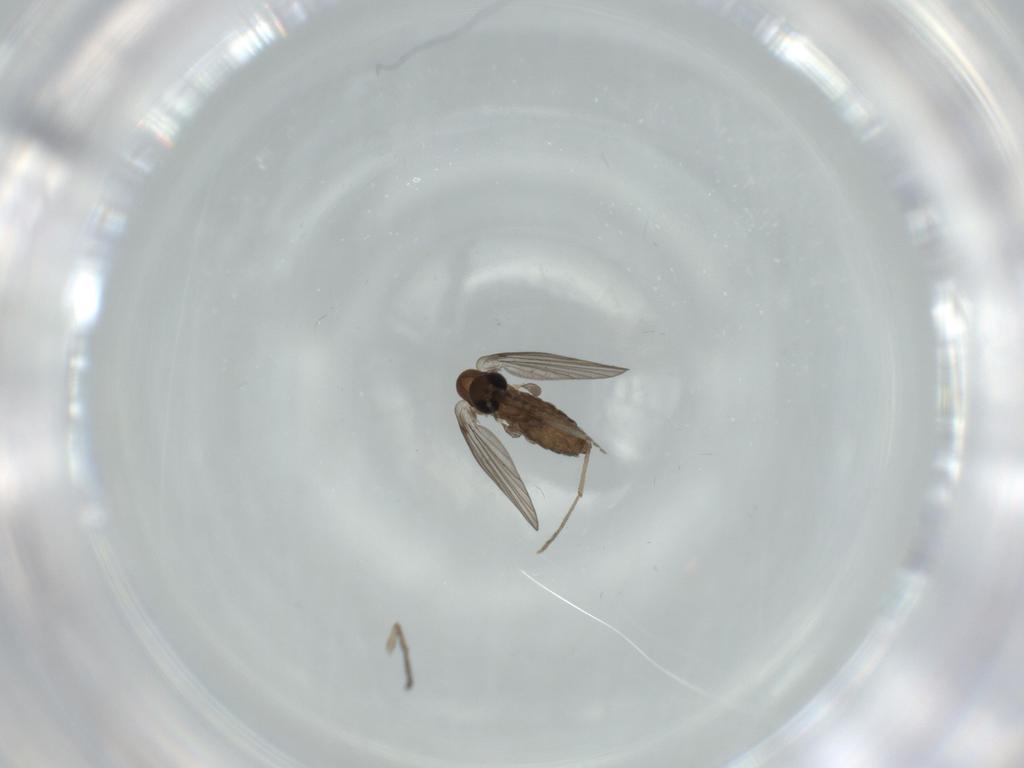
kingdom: Animalia
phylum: Arthropoda
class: Insecta
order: Diptera
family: Psychodidae
